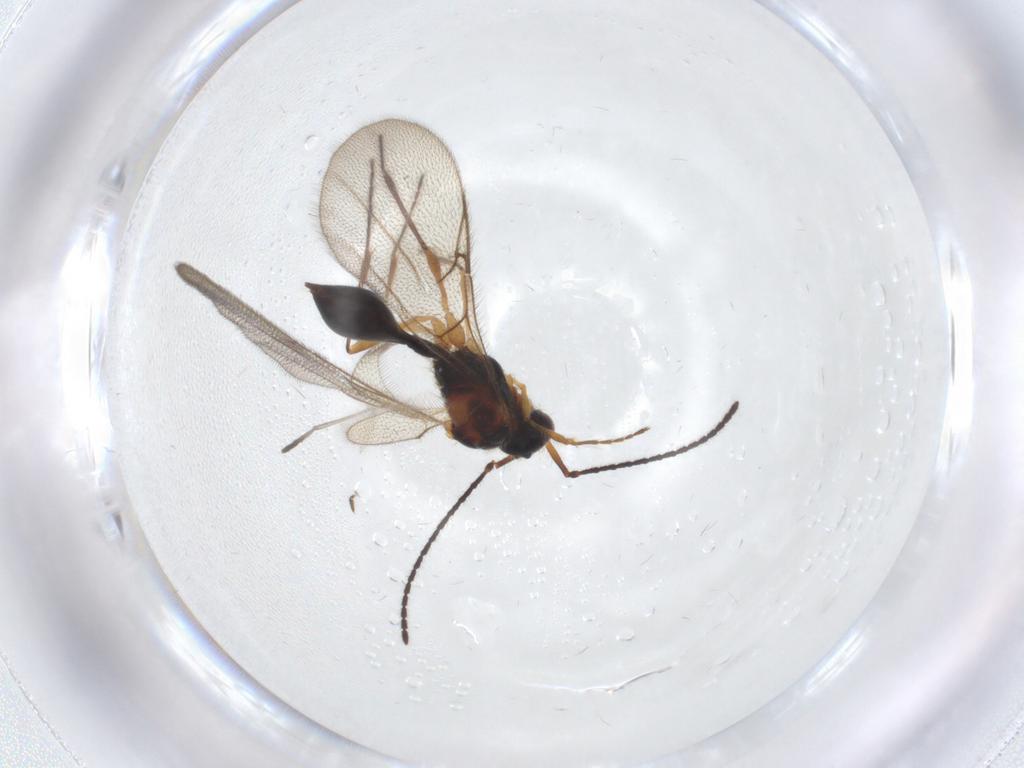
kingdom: Animalia
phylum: Arthropoda
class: Insecta
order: Hymenoptera
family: Diapriidae
